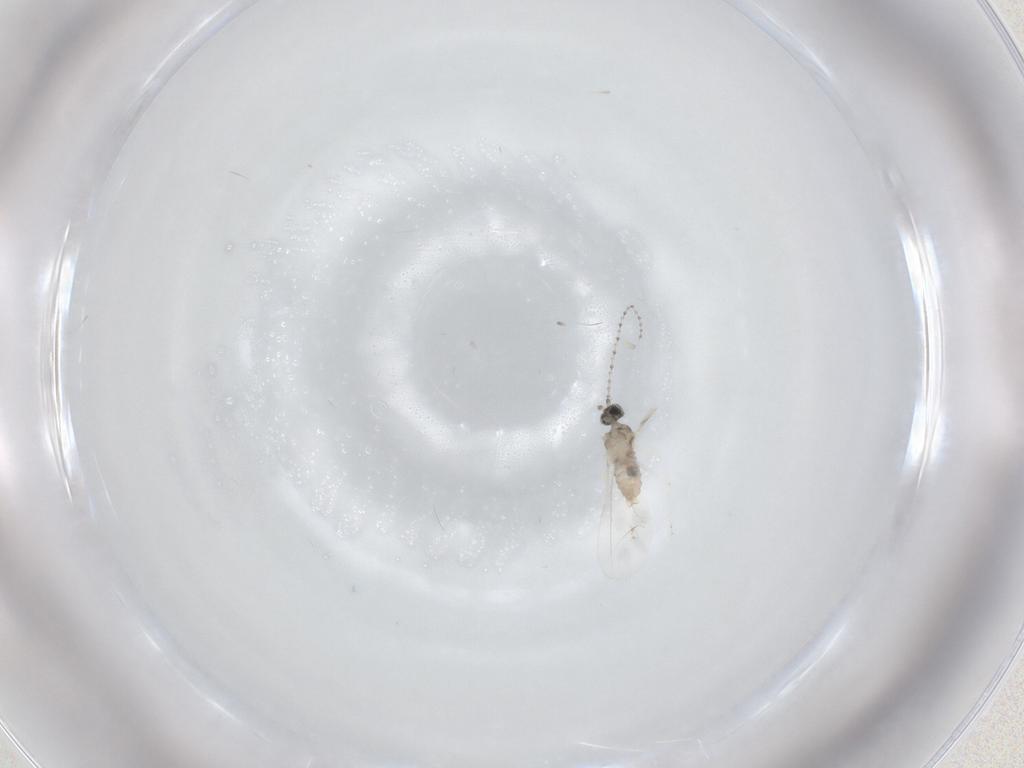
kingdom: Animalia
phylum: Arthropoda
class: Insecta
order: Diptera
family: Cecidomyiidae
